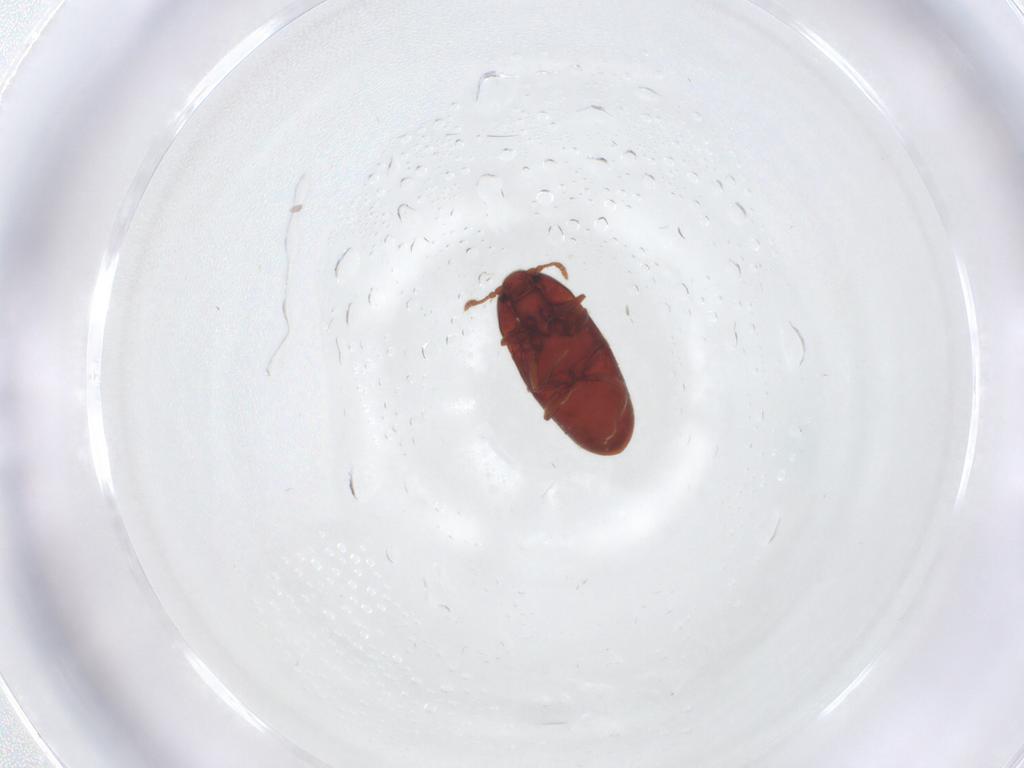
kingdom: Animalia
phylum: Arthropoda
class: Insecta
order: Coleoptera
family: Throscidae
